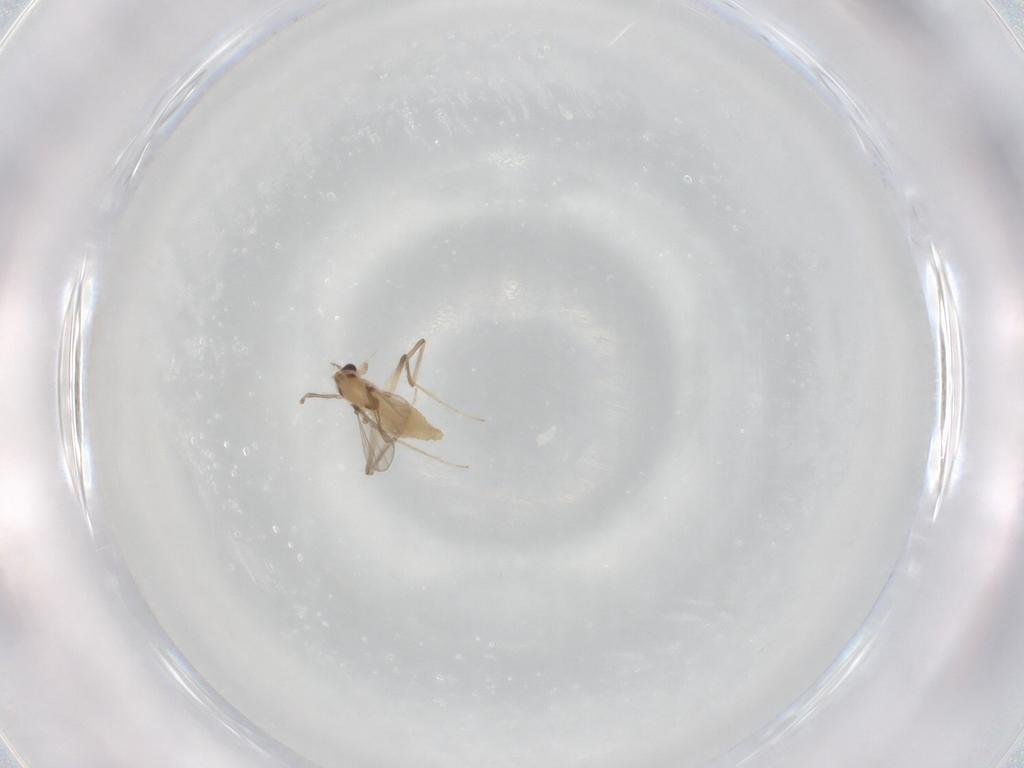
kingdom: Animalia
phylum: Arthropoda
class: Insecta
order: Diptera
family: Chironomidae
